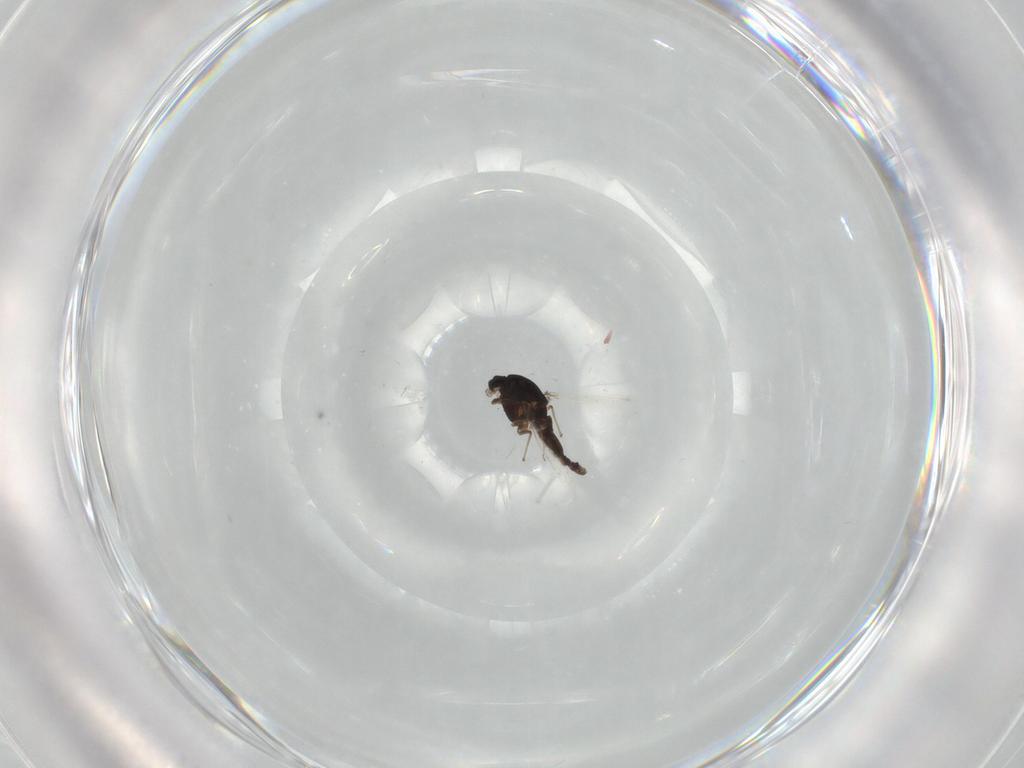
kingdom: Animalia
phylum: Arthropoda
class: Insecta
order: Diptera
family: Chironomidae
